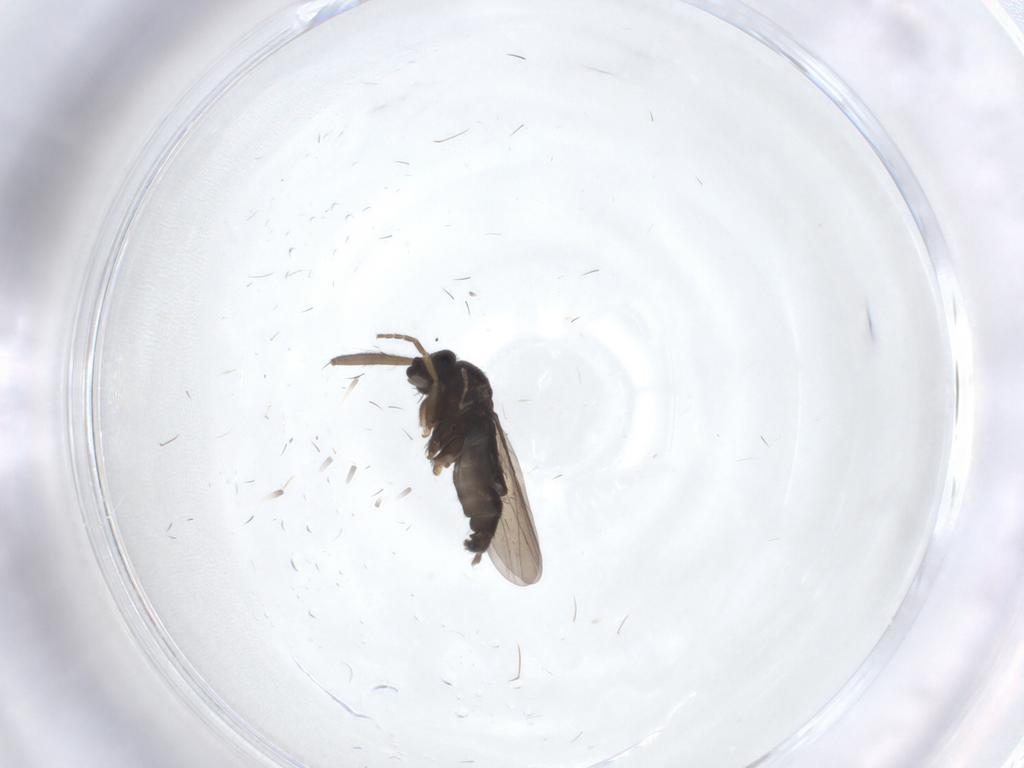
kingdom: Animalia
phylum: Arthropoda
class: Insecta
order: Diptera
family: Phoridae
